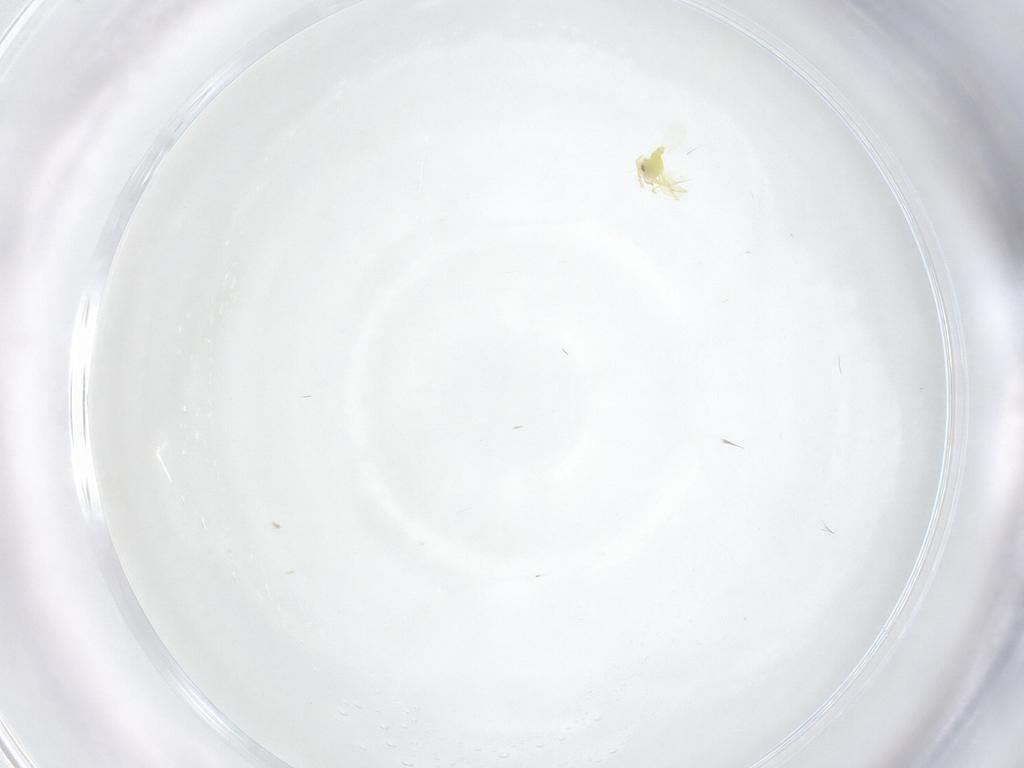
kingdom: Animalia
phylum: Arthropoda
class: Insecta
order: Hemiptera
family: Aleyrodidae
